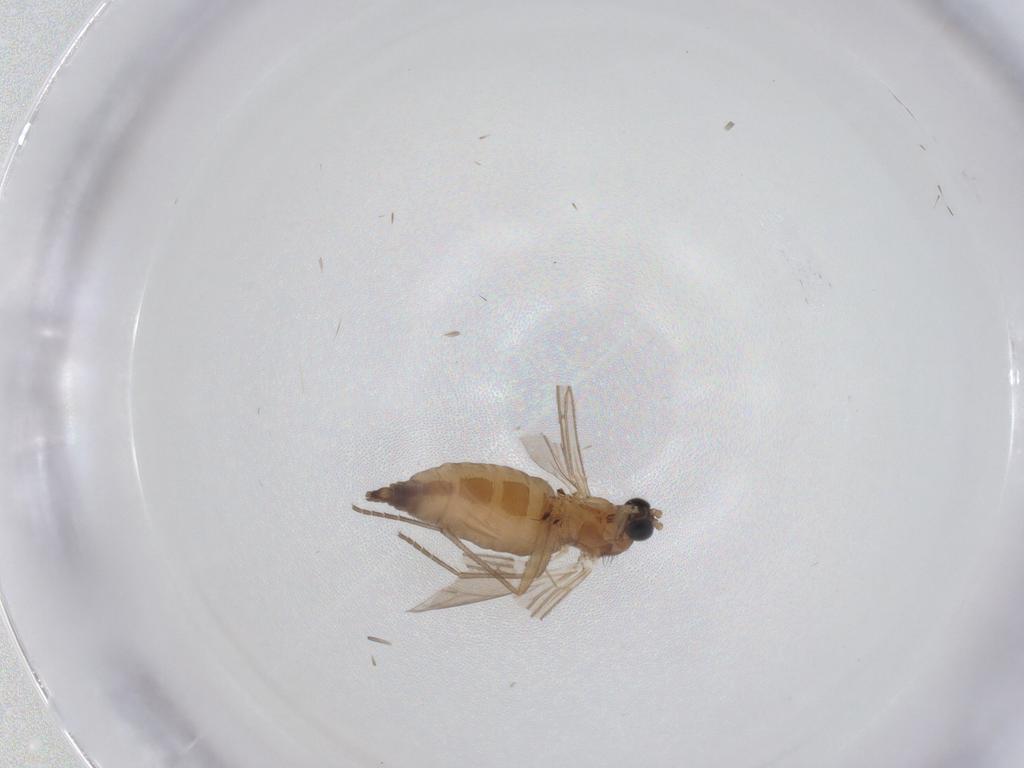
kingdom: Animalia
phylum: Arthropoda
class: Insecta
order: Diptera
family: Sciaridae
